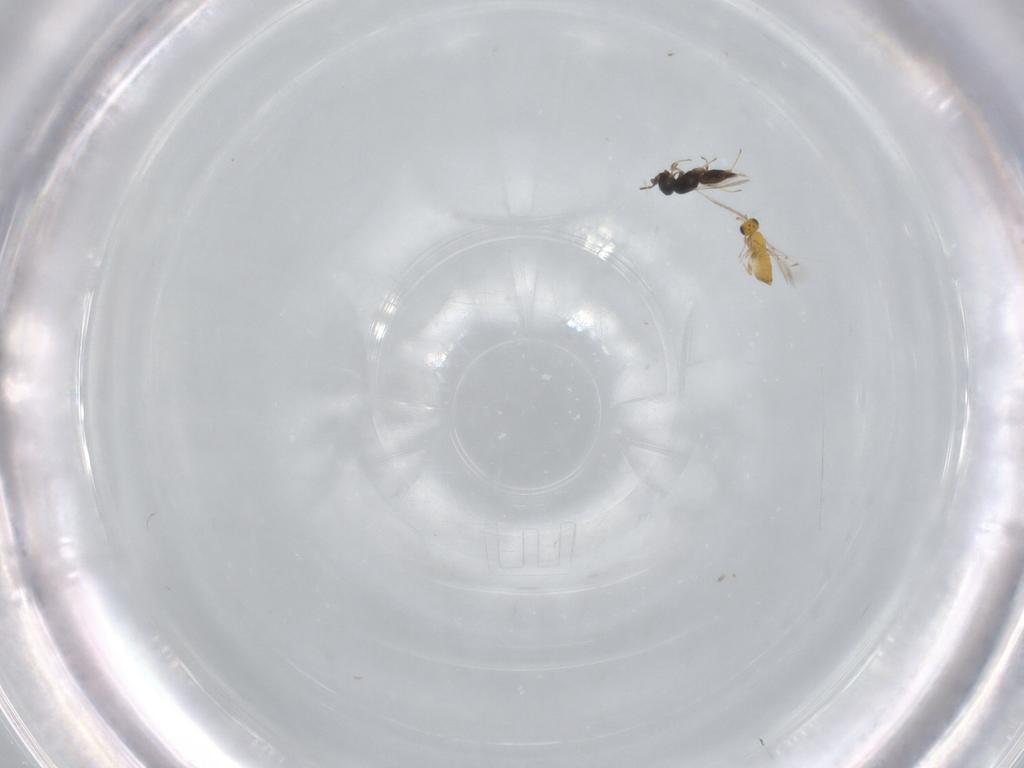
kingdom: Animalia
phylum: Arthropoda
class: Insecta
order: Hymenoptera
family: Scelionidae
